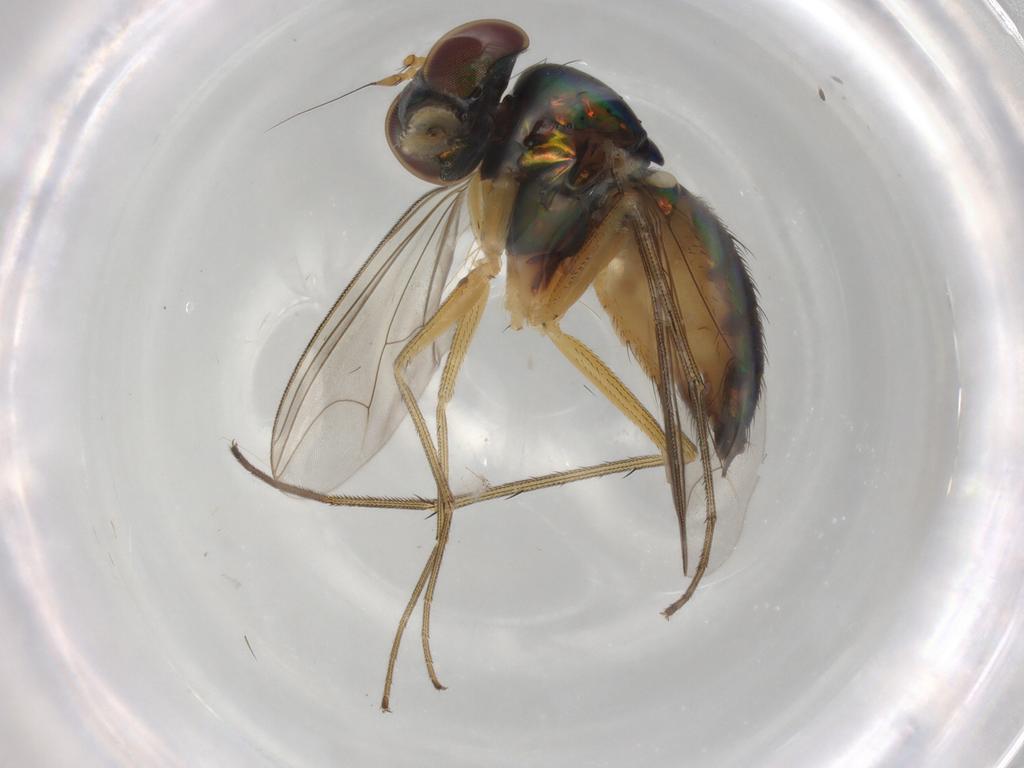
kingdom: Animalia
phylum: Arthropoda
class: Insecta
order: Diptera
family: Dolichopodidae
